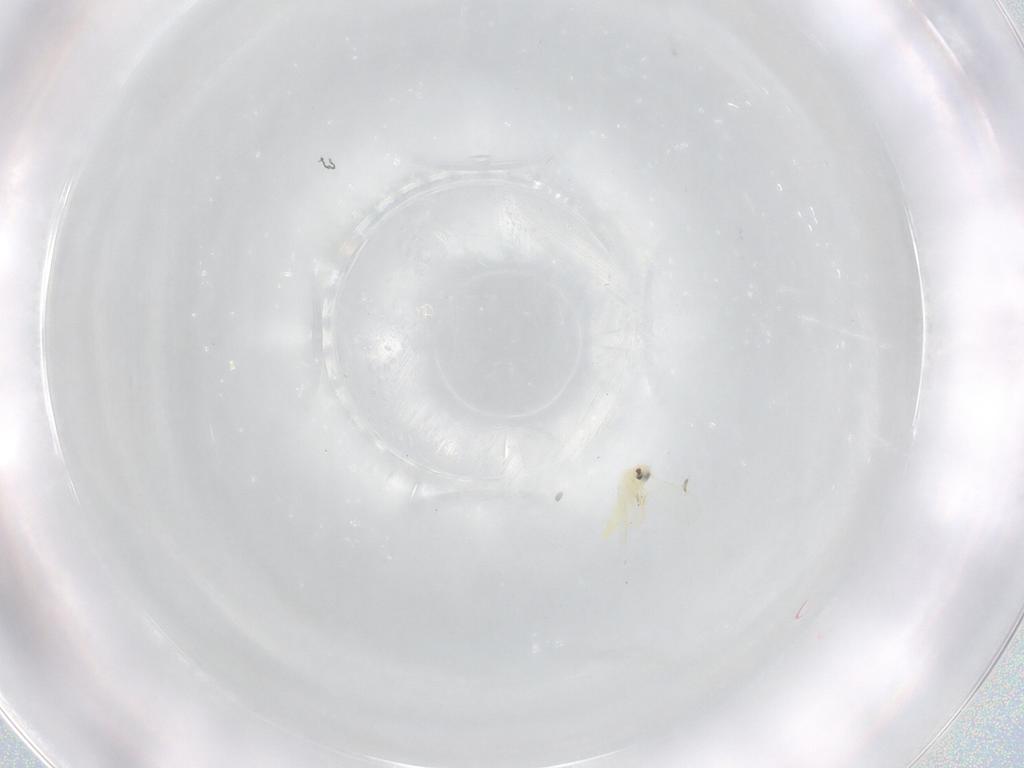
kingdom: Animalia
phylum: Arthropoda
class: Insecta
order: Hemiptera
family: Aleyrodidae
